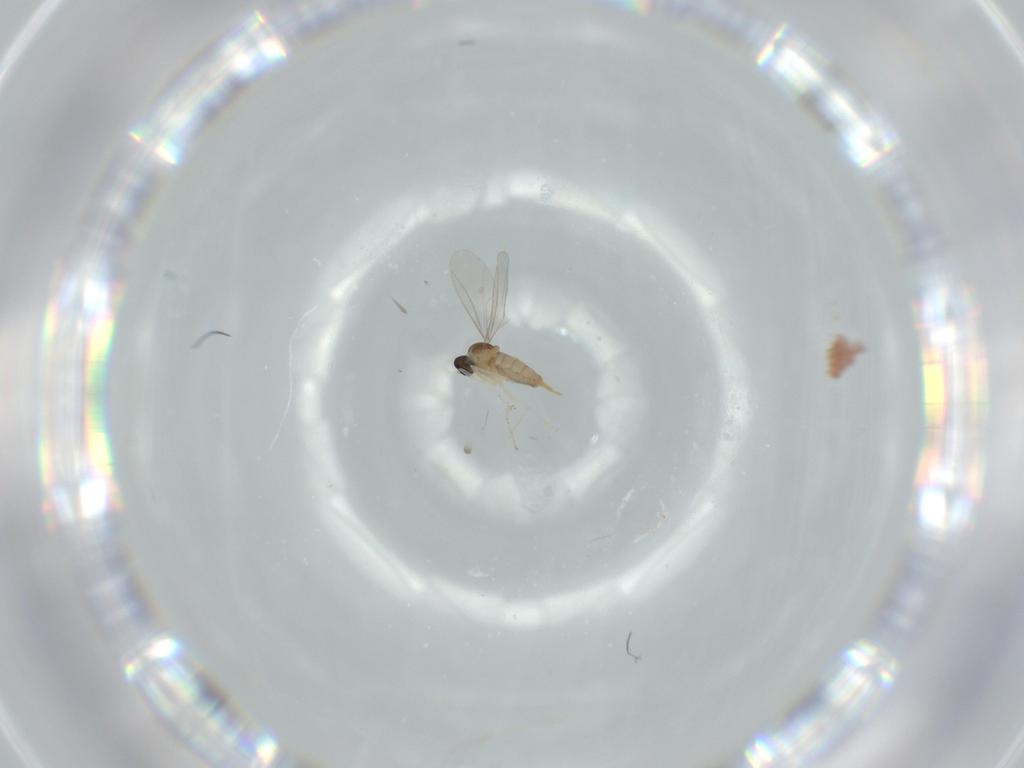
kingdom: Animalia
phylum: Arthropoda
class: Insecta
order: Diptera
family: Cecidomyiidae
